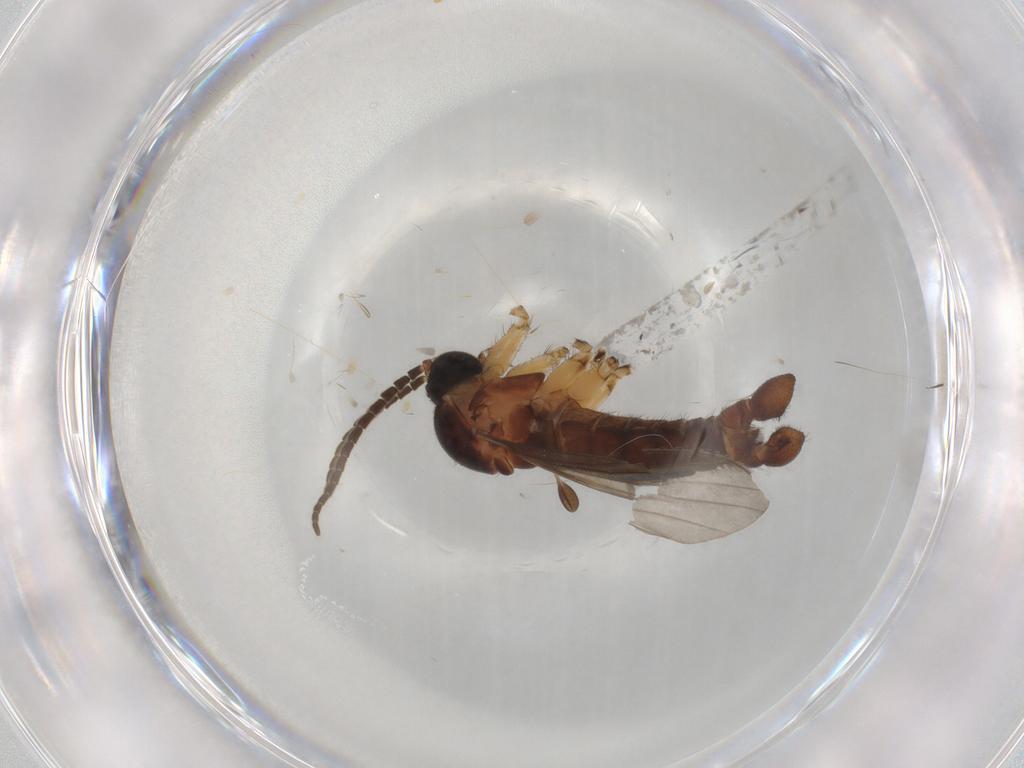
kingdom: Animalia
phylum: Arthropoda
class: Insecta
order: Diptera
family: Sciaridae
